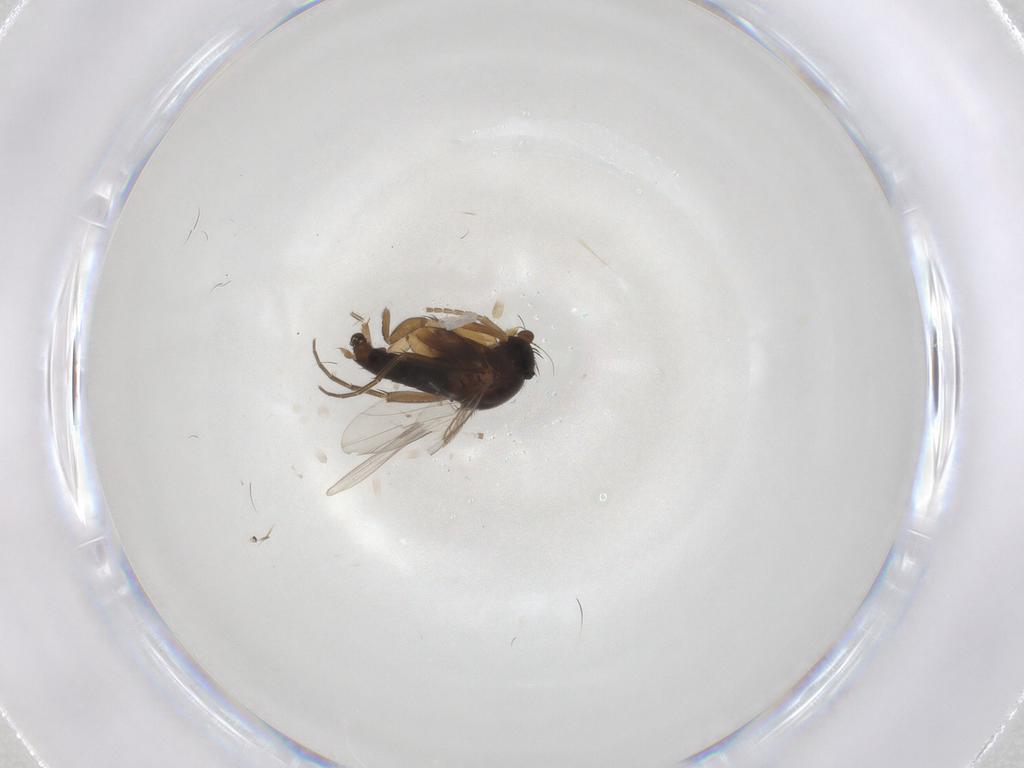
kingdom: Animalia
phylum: Arthropoda
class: Insecta
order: Diptera
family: Phoridae
